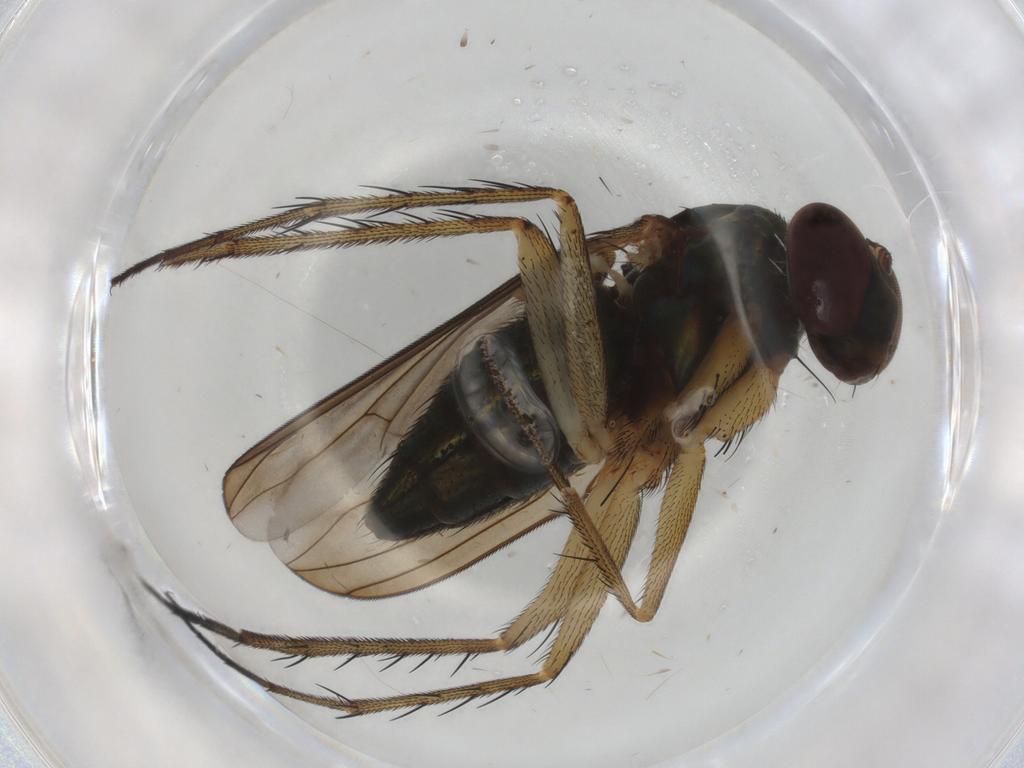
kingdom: Animalia
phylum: Arthropoda
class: Insecta
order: Diptera
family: Dolichopodidae
